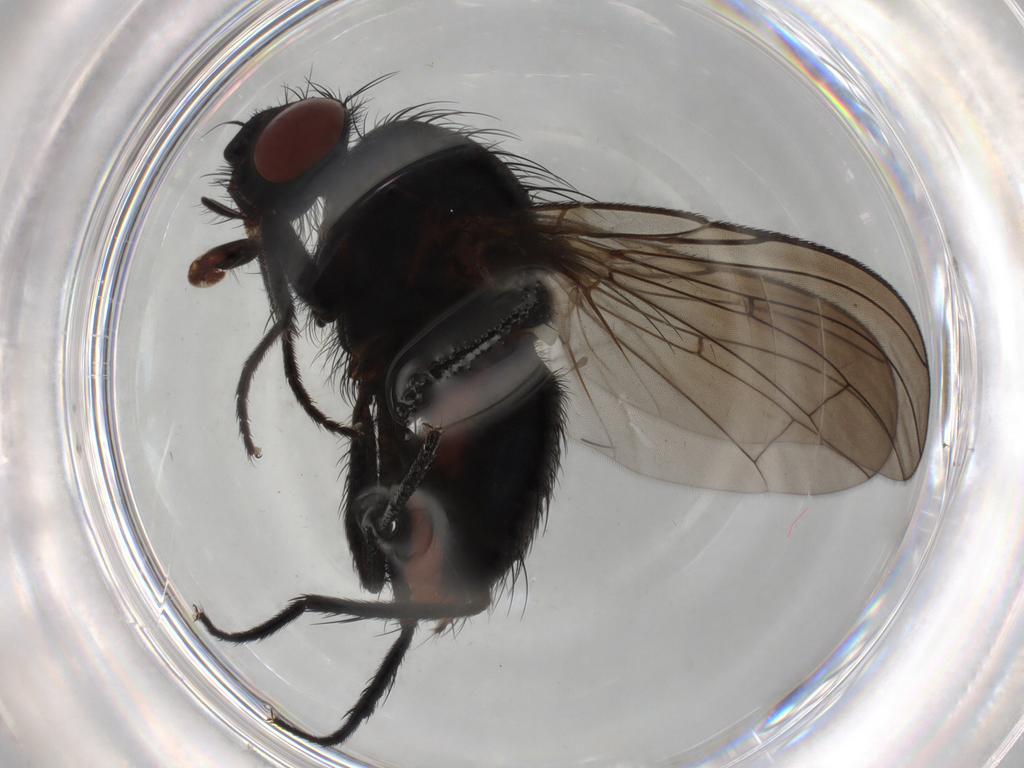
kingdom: Animalia
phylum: Arthropoda
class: Insecta
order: Diptera
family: Anthomyiidae
